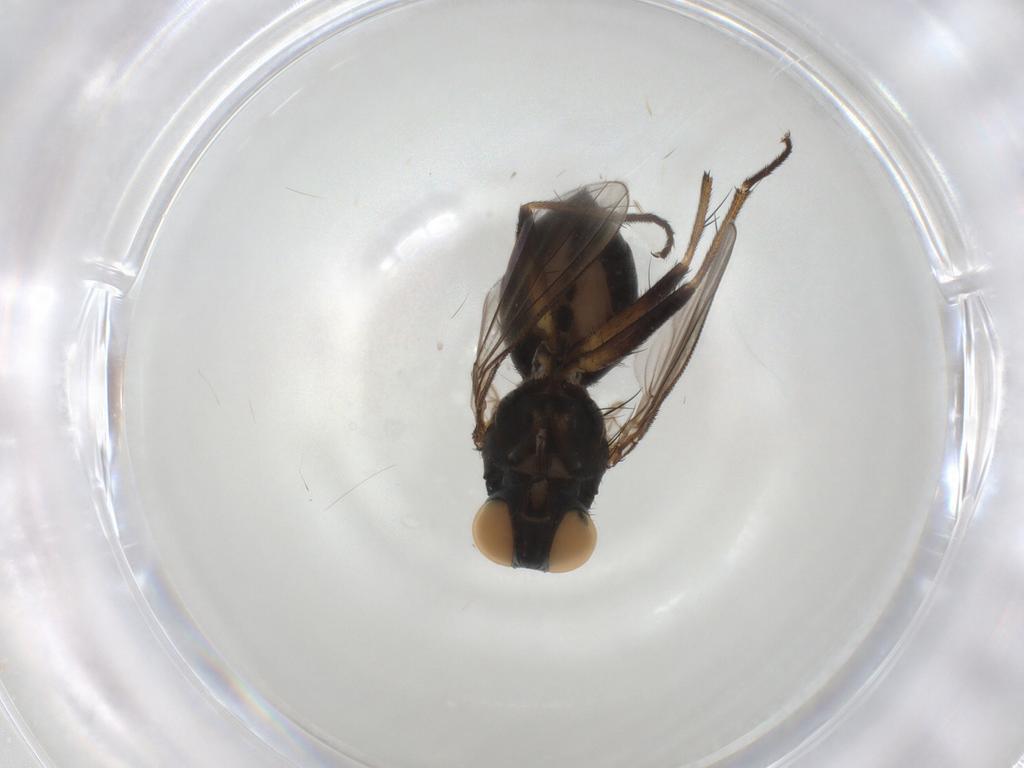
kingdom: Animalia
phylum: Arthropoda
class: Insecta
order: Diptera
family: Muscidae
